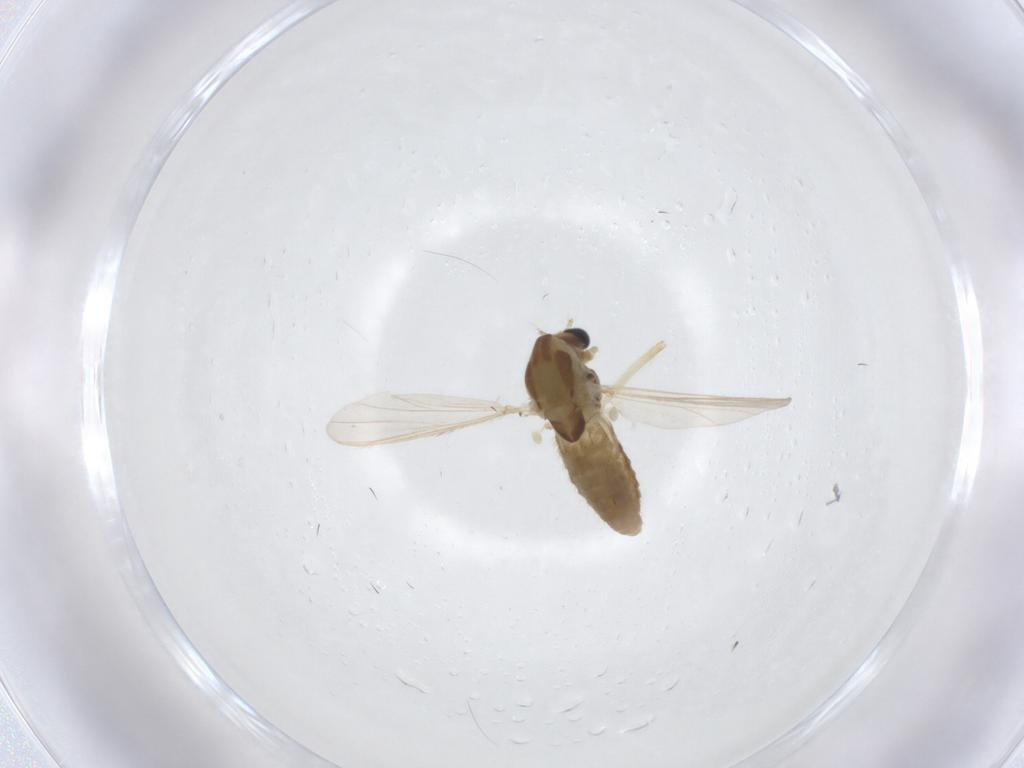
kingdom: Animalia
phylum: Arthropoda
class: Insecta
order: Diptera
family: Chironomidae
